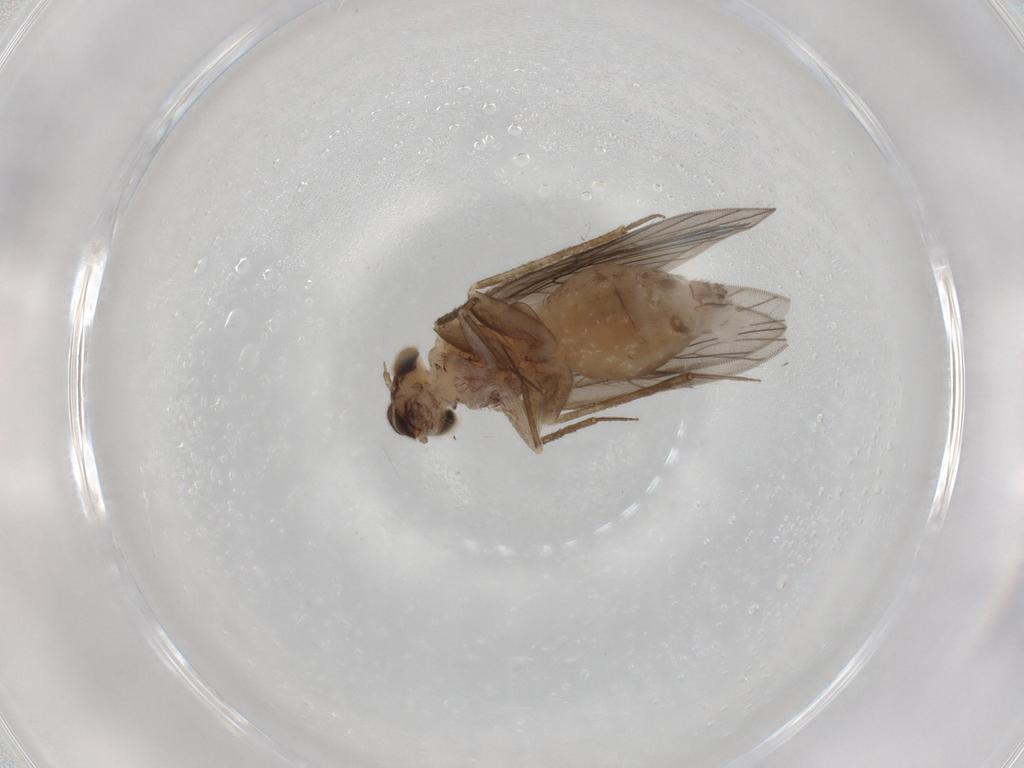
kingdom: Animalia
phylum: Arthropoda
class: Insecta
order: Psocodea
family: Lepidopsocidae
